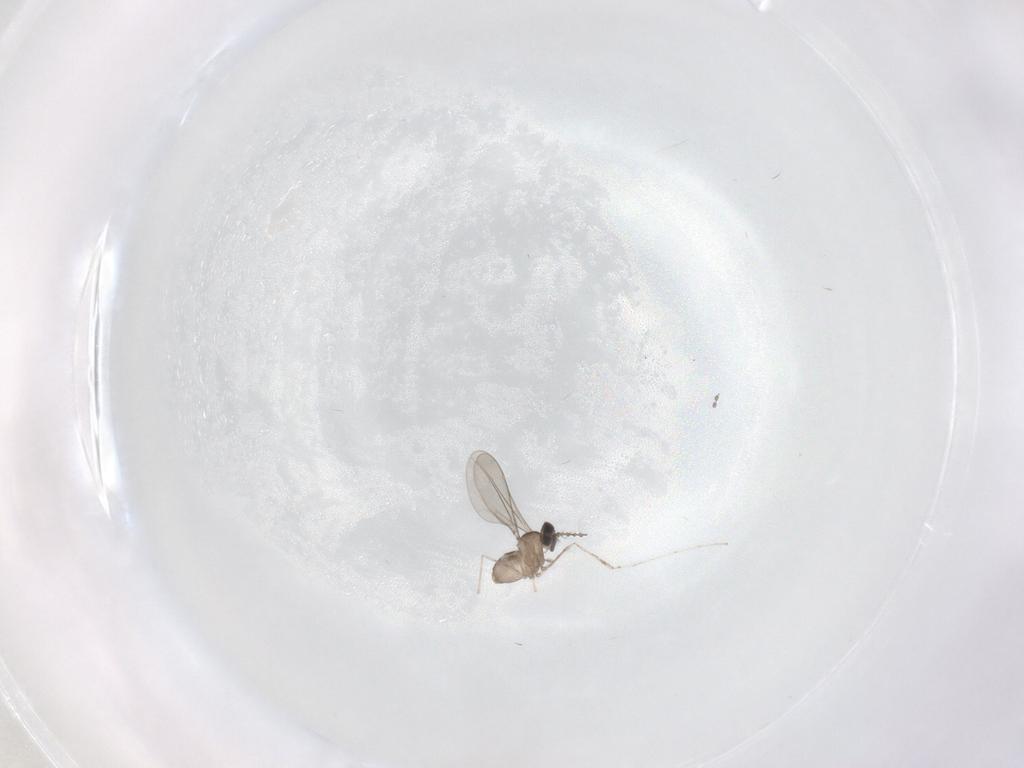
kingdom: Animalia
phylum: Arthropoda
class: Insecta
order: Diptera
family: Cecidomyiidae
